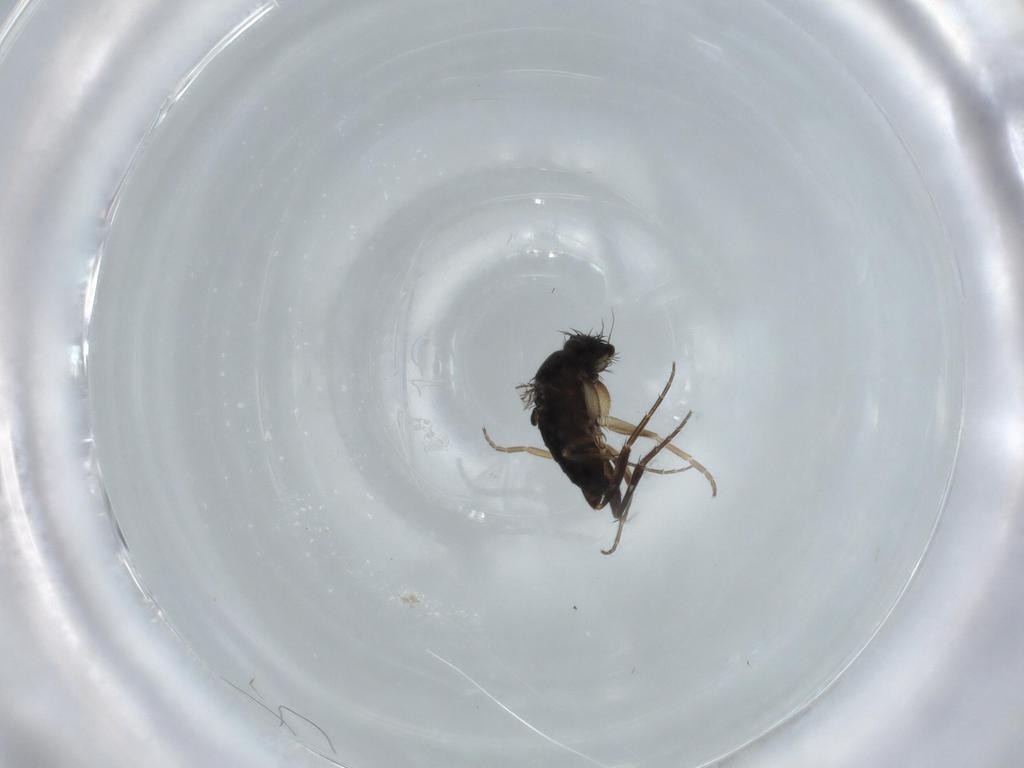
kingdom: Animalia
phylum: Arthropoda
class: Insecta
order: Diptera
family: Phoridae
